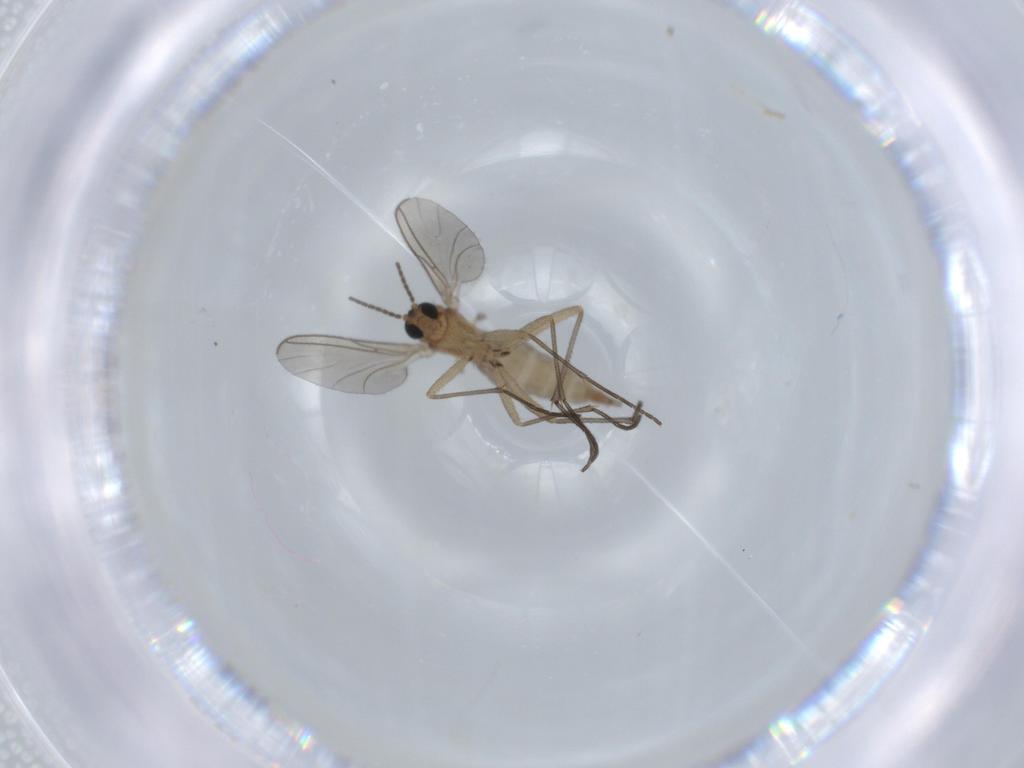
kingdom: Animalia
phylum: Arthropoda
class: Insecta
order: Diptera
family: Sciaridae
